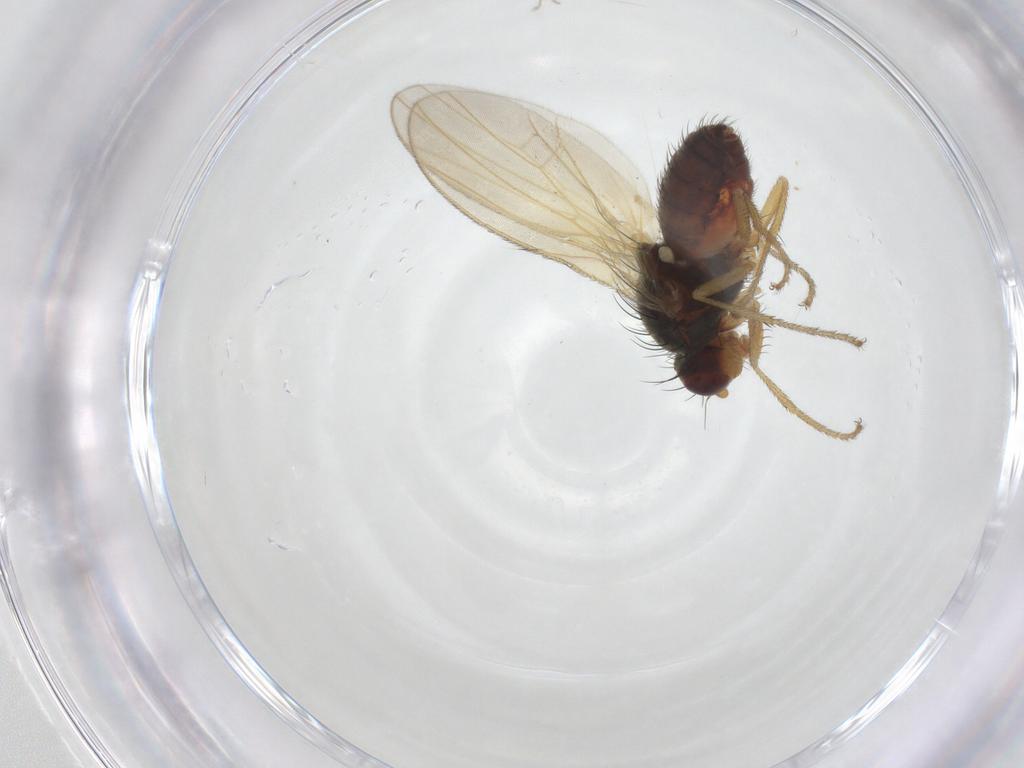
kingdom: Animalia
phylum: Arthropoda
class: Insecta
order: Diptera
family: Heleomyzidae
